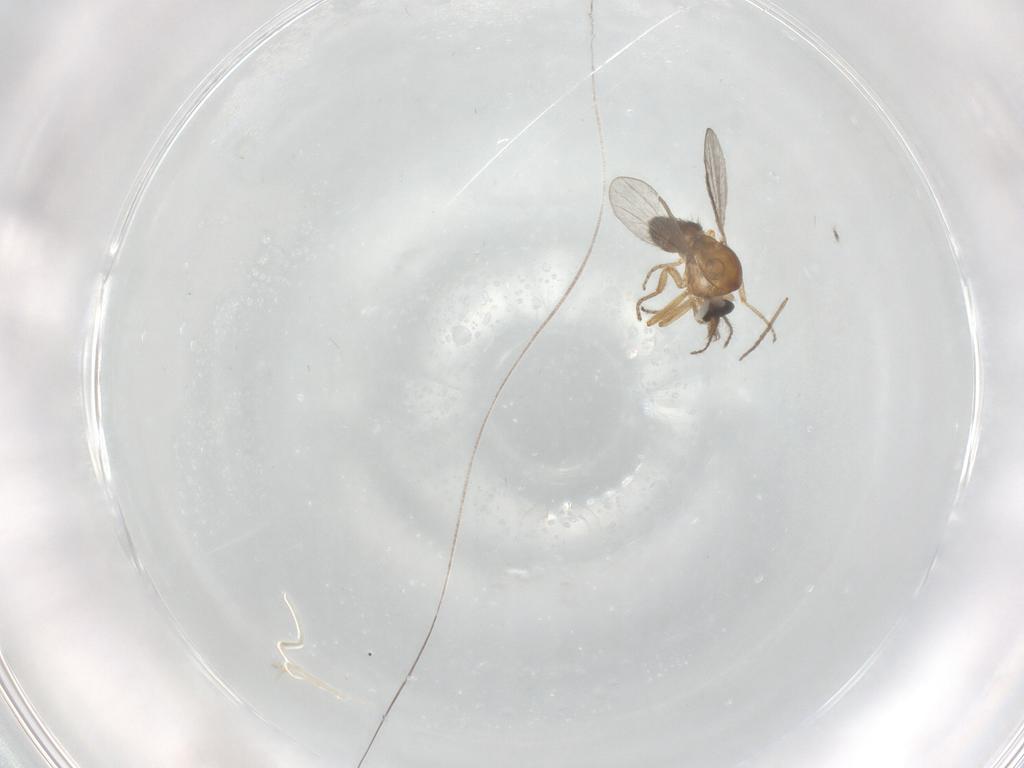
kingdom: Animalia
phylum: Arthropoda
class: Insecta
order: Diptera
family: Ceratopogonidae
